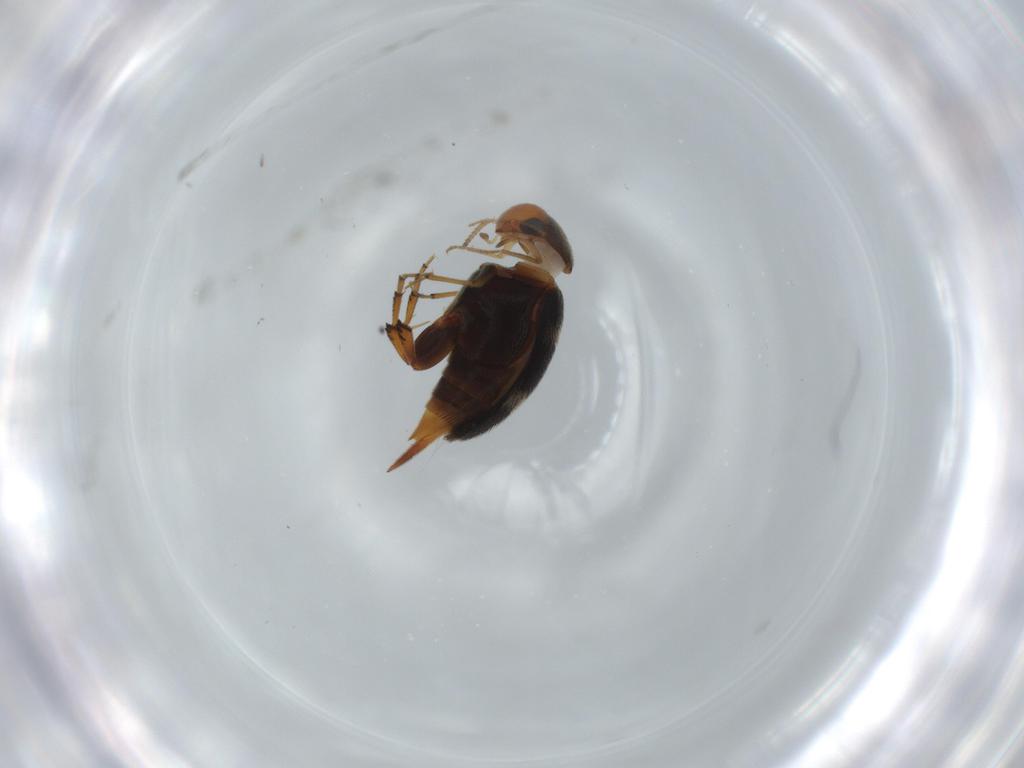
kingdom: Animalia
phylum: Arthropoda
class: Insecta
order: Coleoptera
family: Mordellidae
